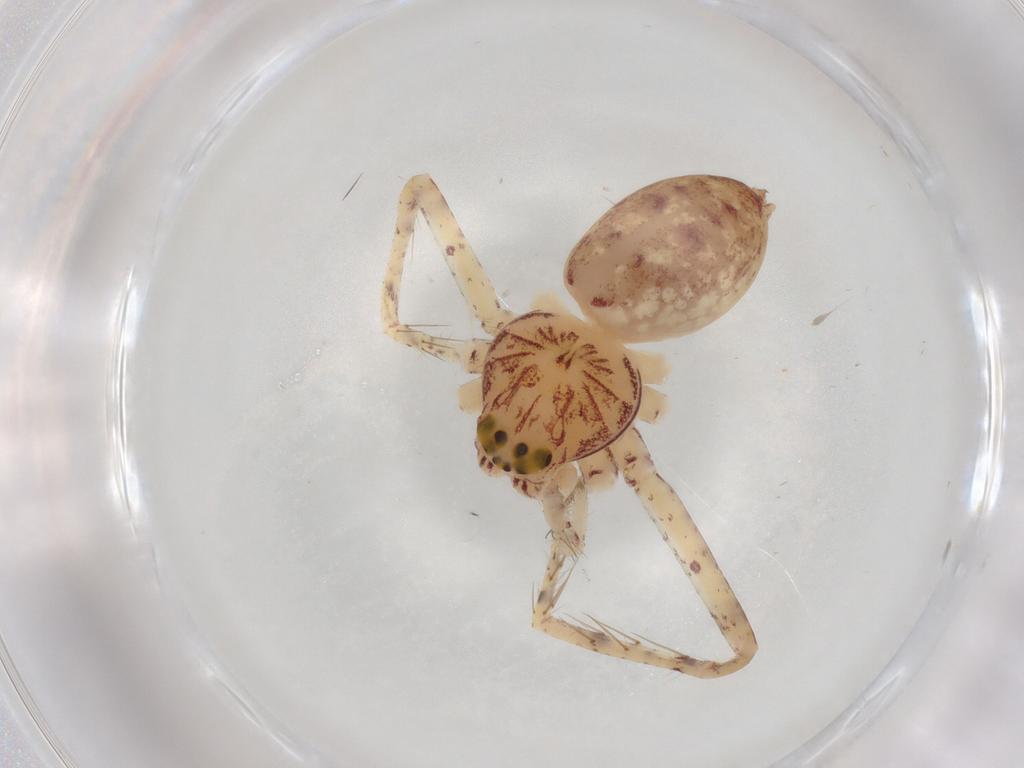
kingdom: Animalia
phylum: Arthropoda
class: Arachnida
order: Araneae
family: Sparassidae
